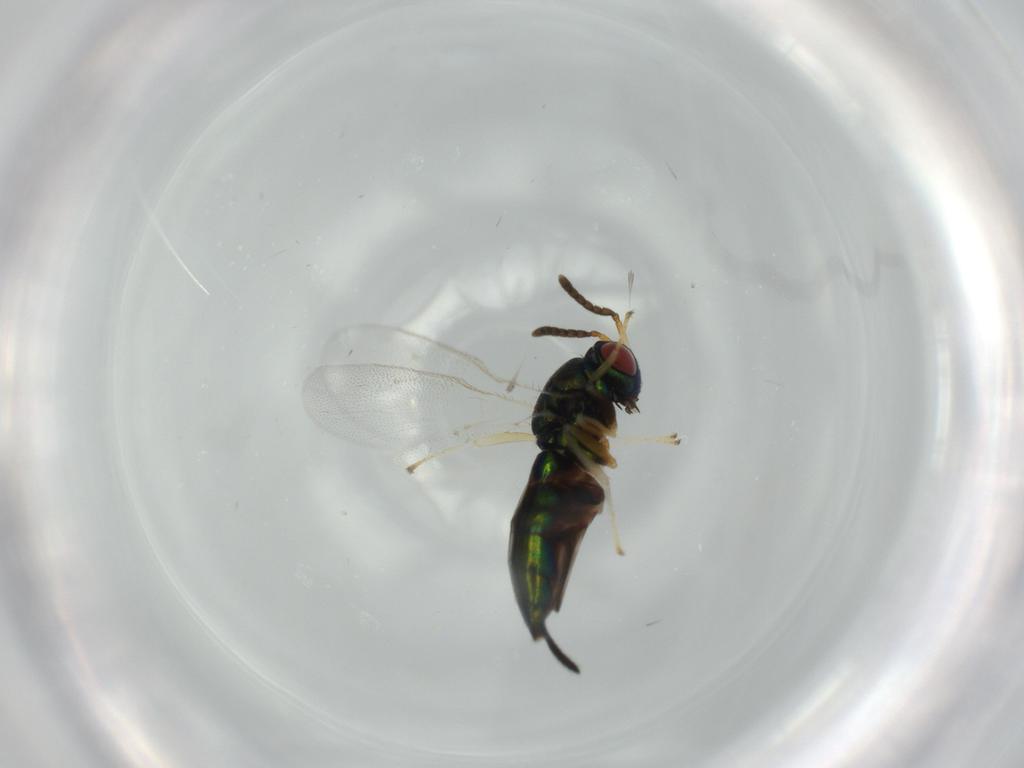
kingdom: Animalia
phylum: Arthropoda
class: Insecta
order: Hymenoptera
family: Pteromalidae
